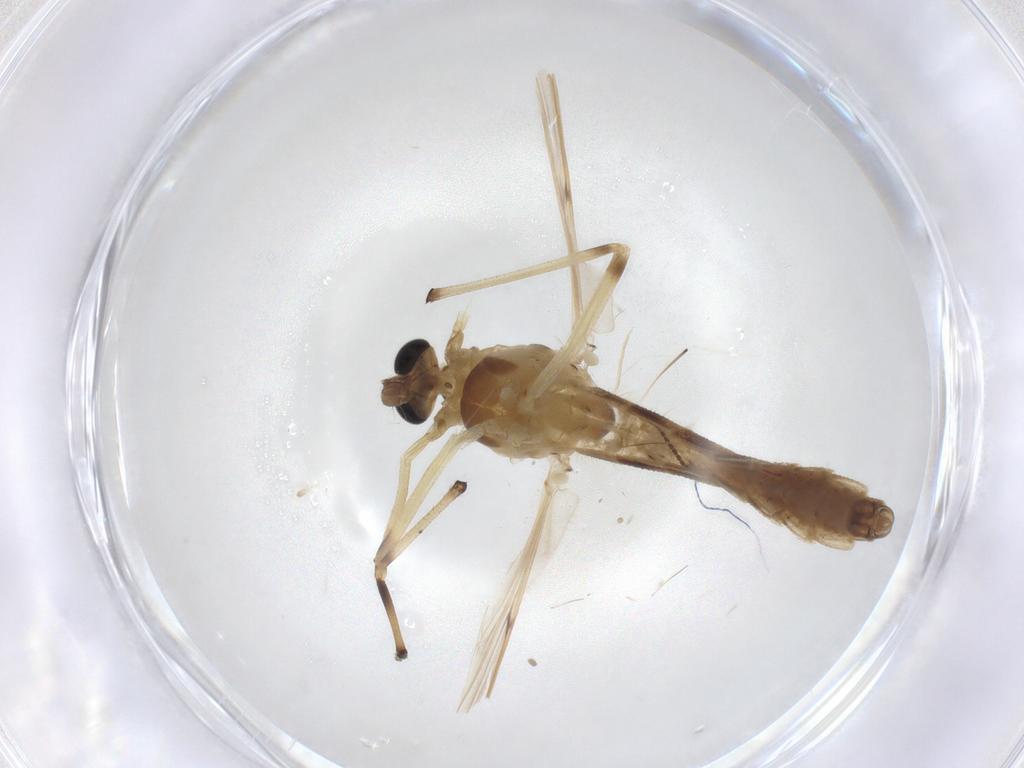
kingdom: Animalia
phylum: Arthropoda
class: Insecta
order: Diptera
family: Chironomidae
